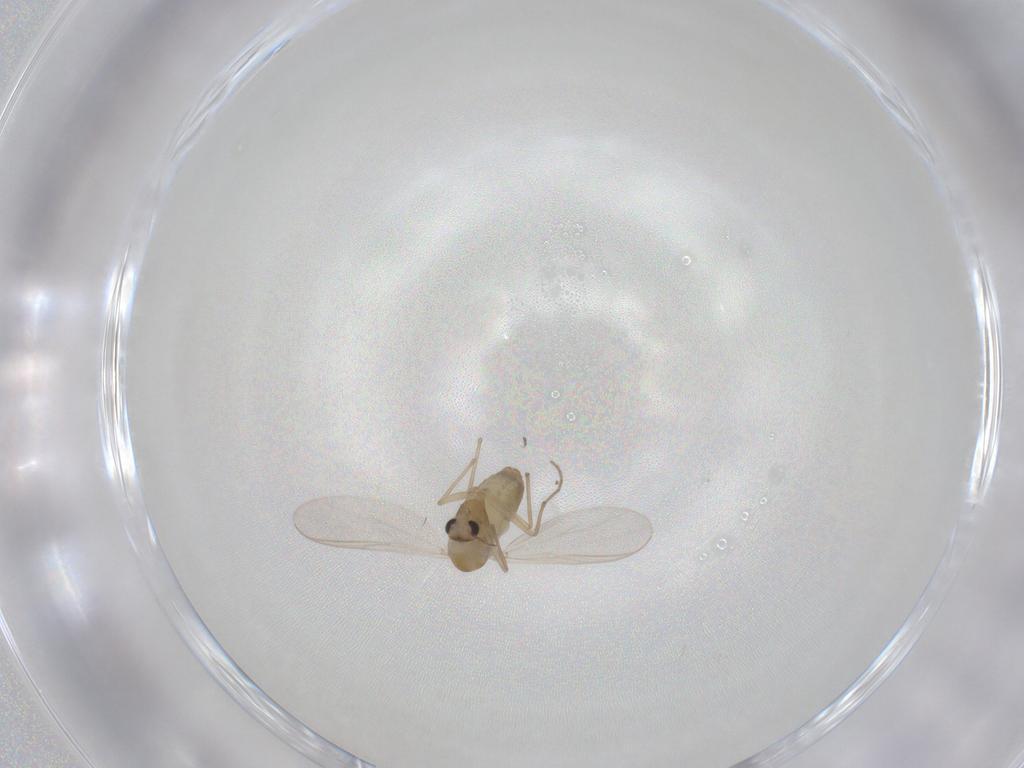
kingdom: Animalia
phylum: Arthropoda
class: Insecta
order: Diptera
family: Chironomidae
